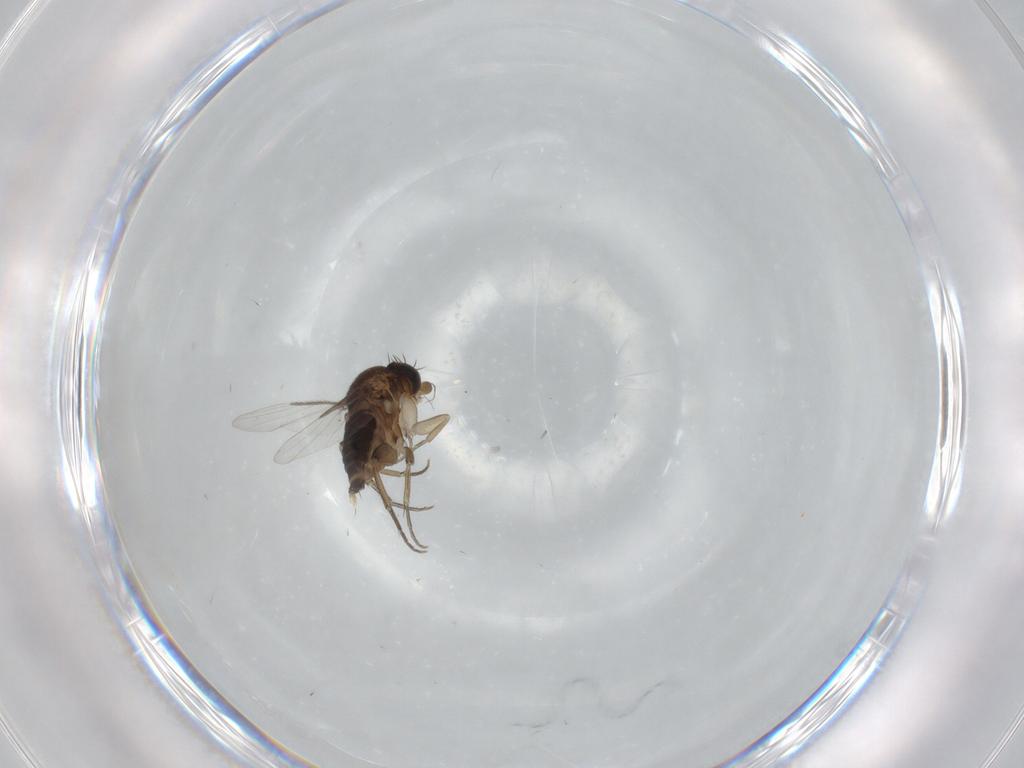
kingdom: Animalia
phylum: Arthropoda
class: Insecta
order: Diptera
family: Phoridae
